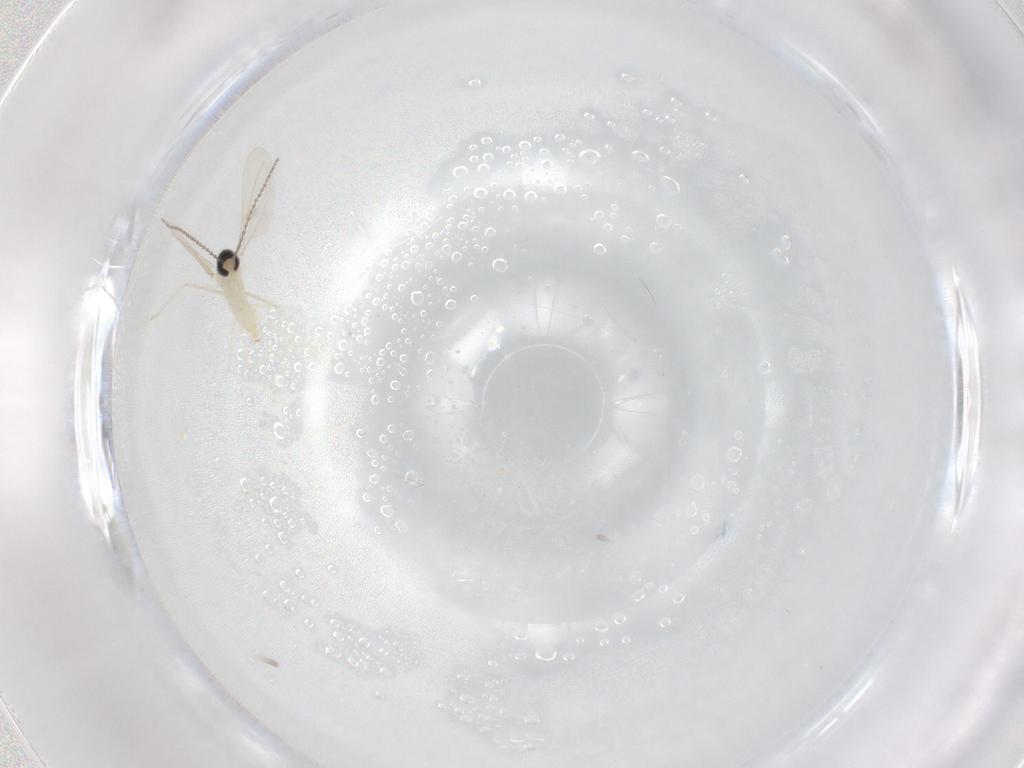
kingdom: Animalia
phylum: Arthropoda
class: Insecta
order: Diptera
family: Cecidomyiidae
